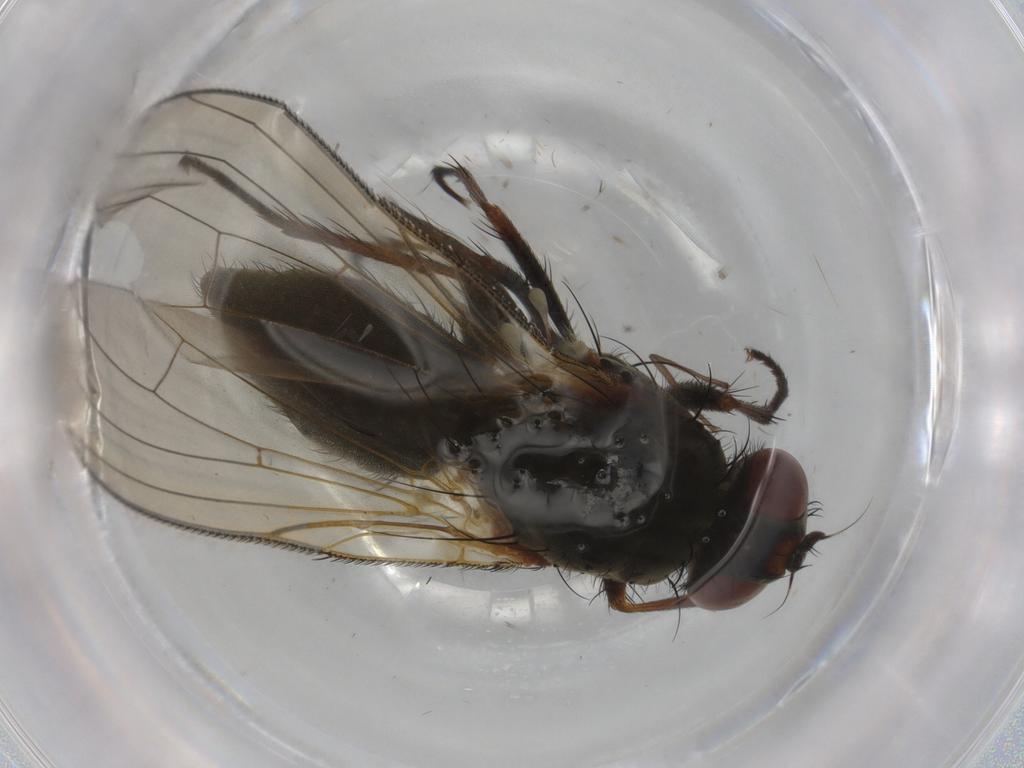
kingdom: Animalia
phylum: Arthropoda
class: Insecta
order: Diptera
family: Anthomyiidae
